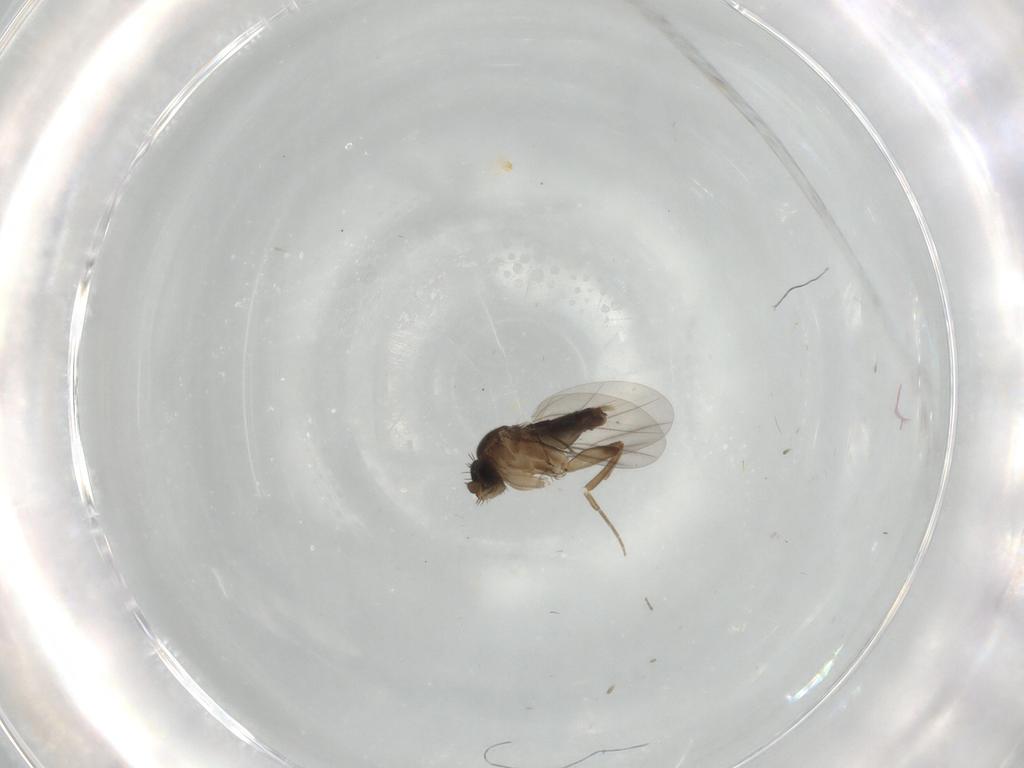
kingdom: Animalia
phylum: Arthropoda
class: Insecta
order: Diptera
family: Phoridae
